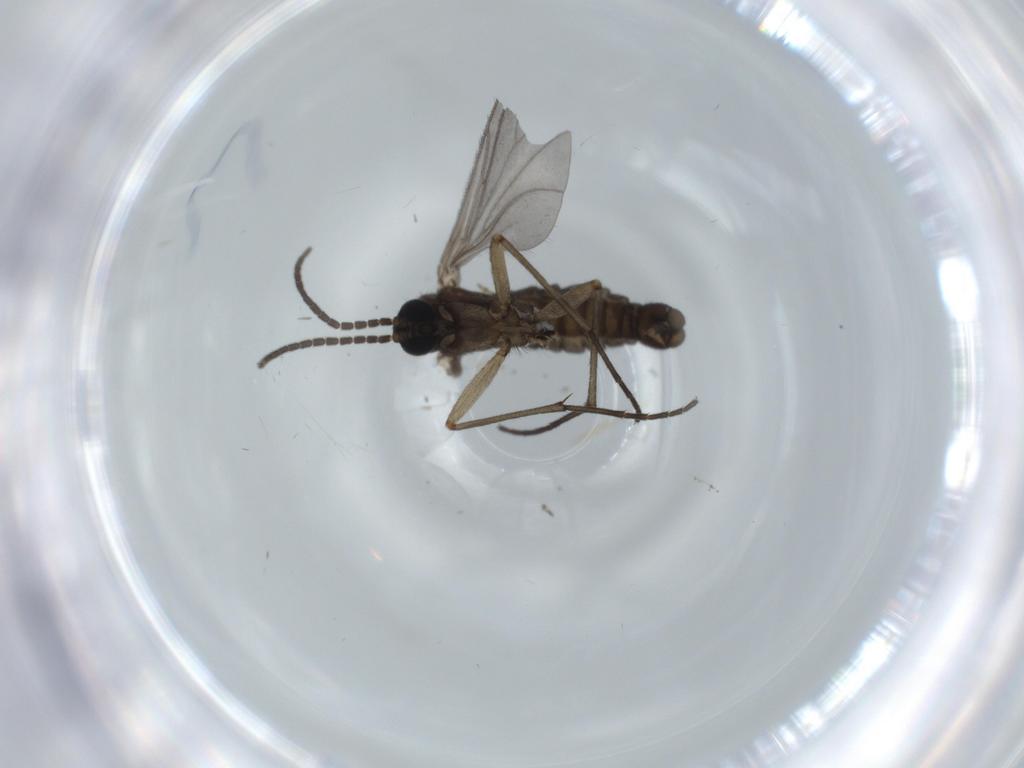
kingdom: Animalia
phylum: Arthropoda
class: Insecta
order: Diptera
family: Sciaridae
